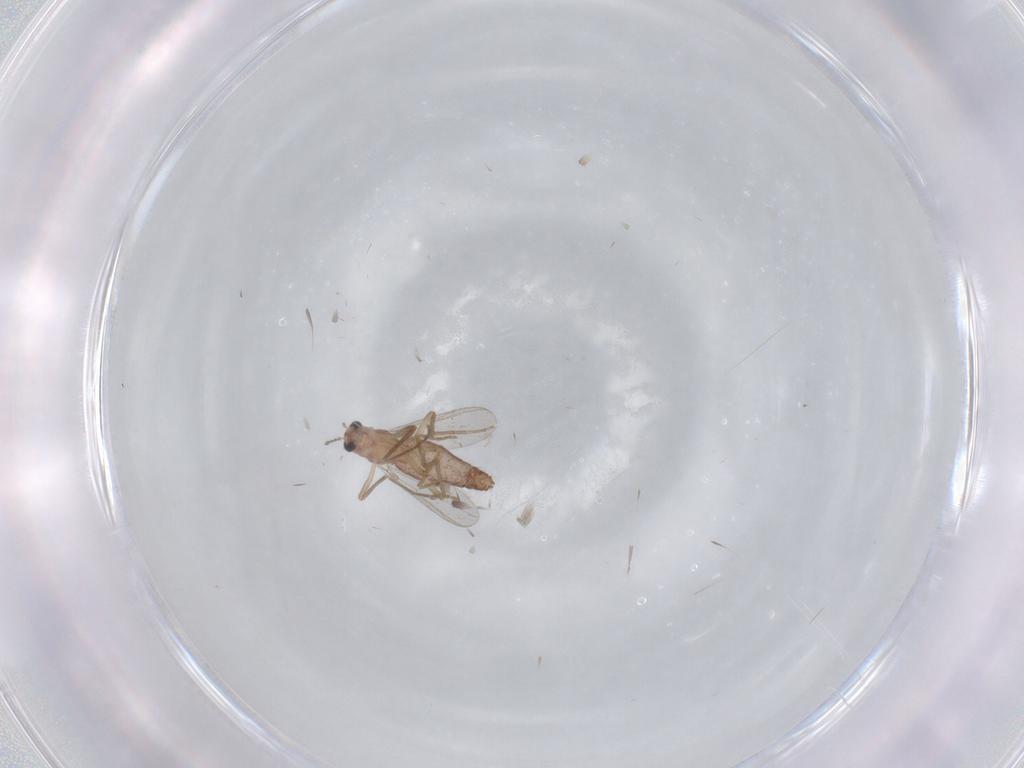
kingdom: Animalia
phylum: Arthropoda
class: Insecta
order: Diptera
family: Chironomidae
